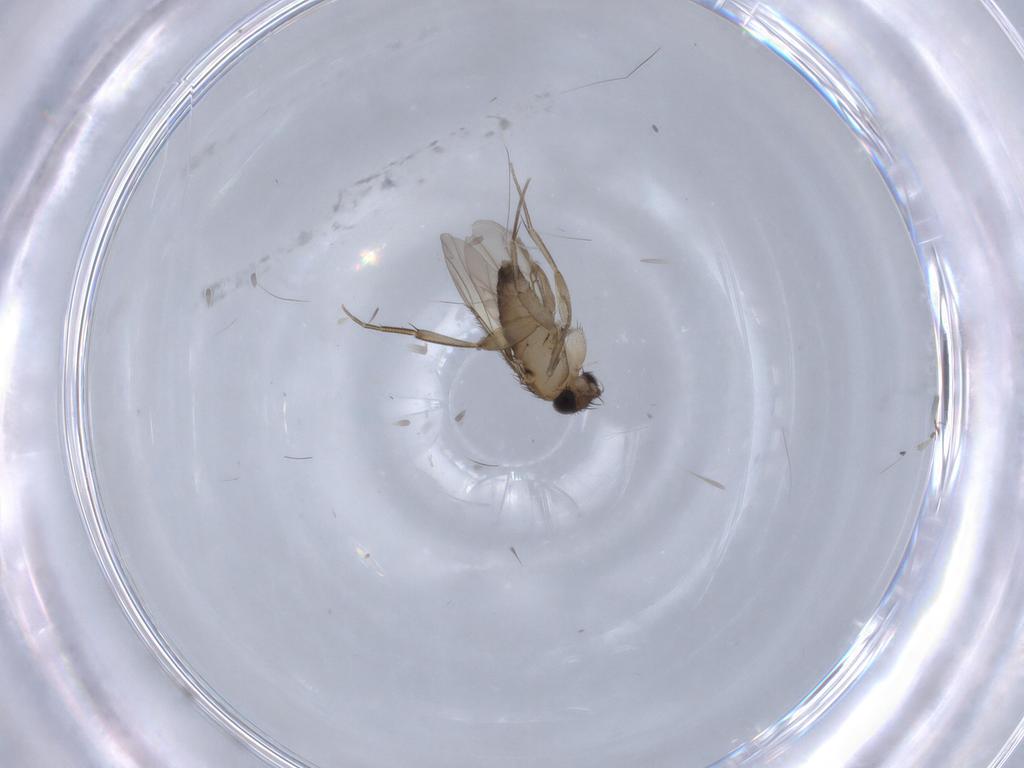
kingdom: Animalia
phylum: Arthropoda
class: Insecta
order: Diptera
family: Phoridae
